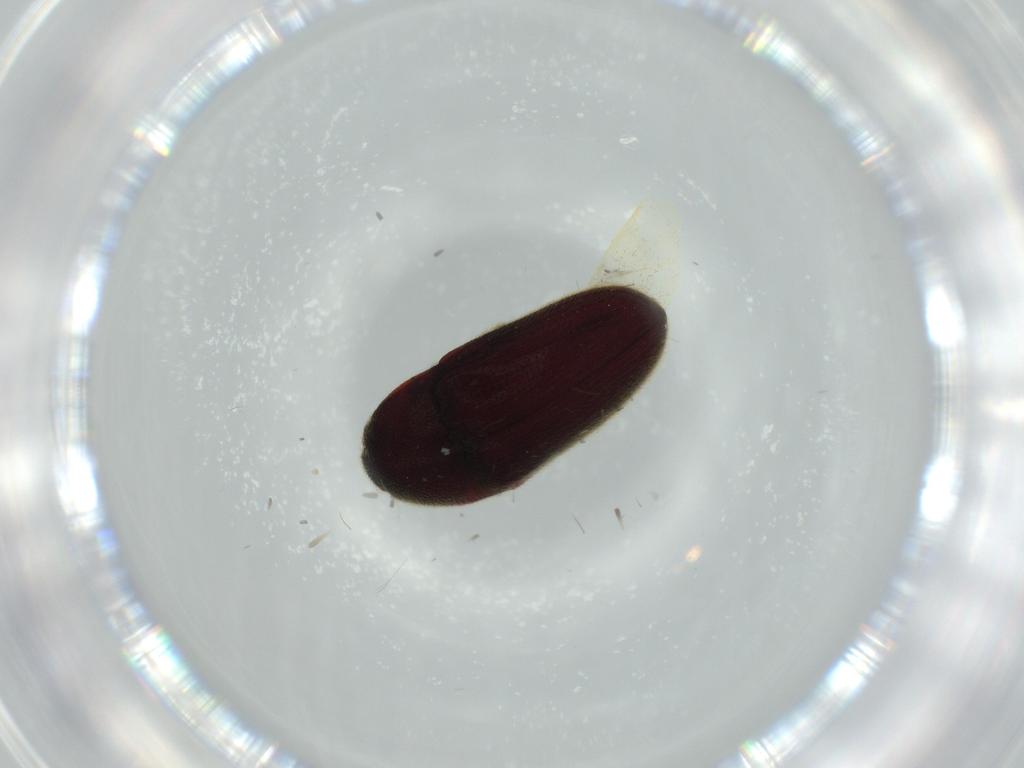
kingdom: Animalia
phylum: Arthropoda
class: Insecta
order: Coleoptera
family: Throscidae
